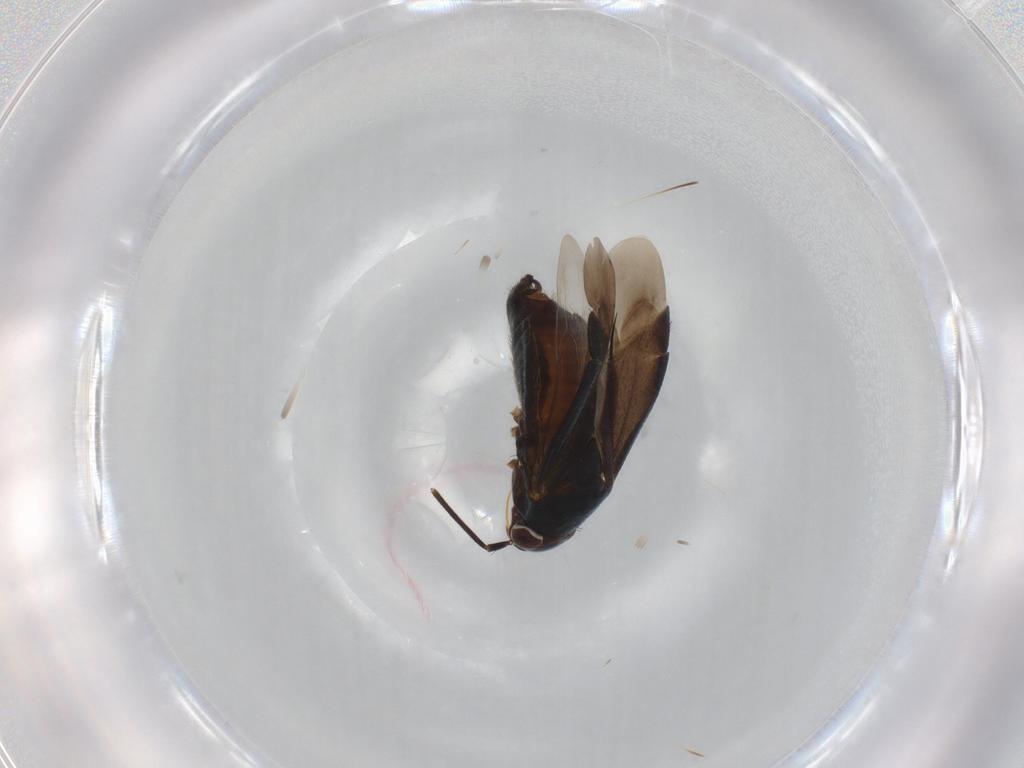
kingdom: Animalia
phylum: Arthropoda
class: Insecta
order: Hemiptera
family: Miridae
